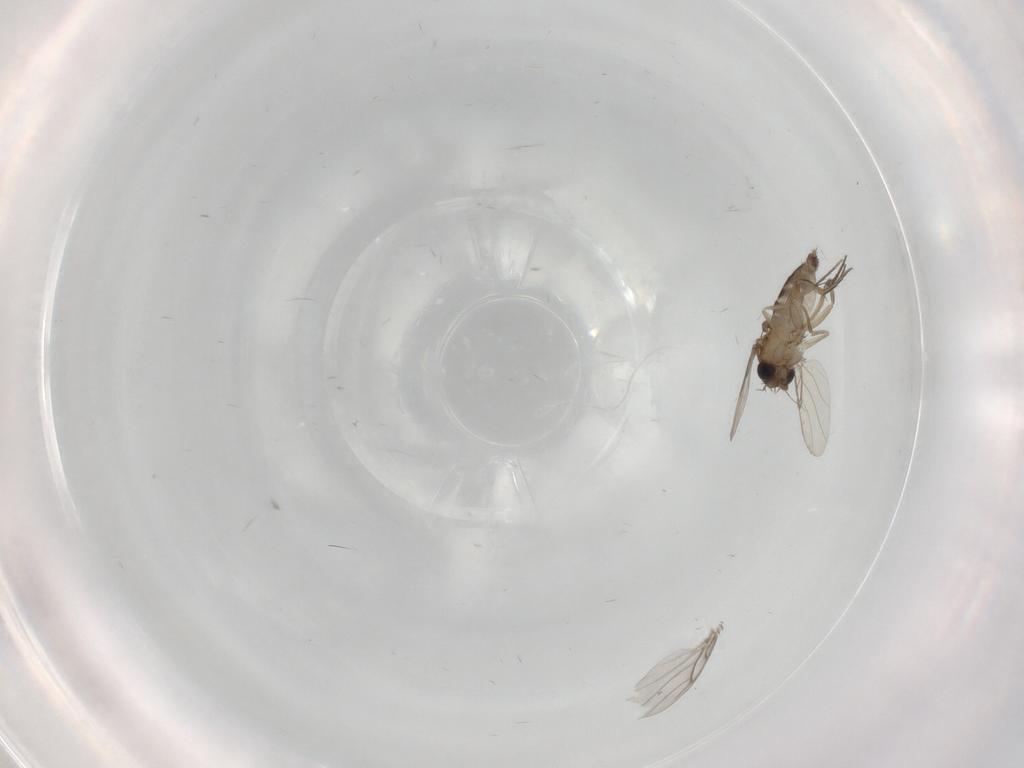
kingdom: Animalia
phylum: Arthropoda
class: Insecta
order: Diptera
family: Phoridae
